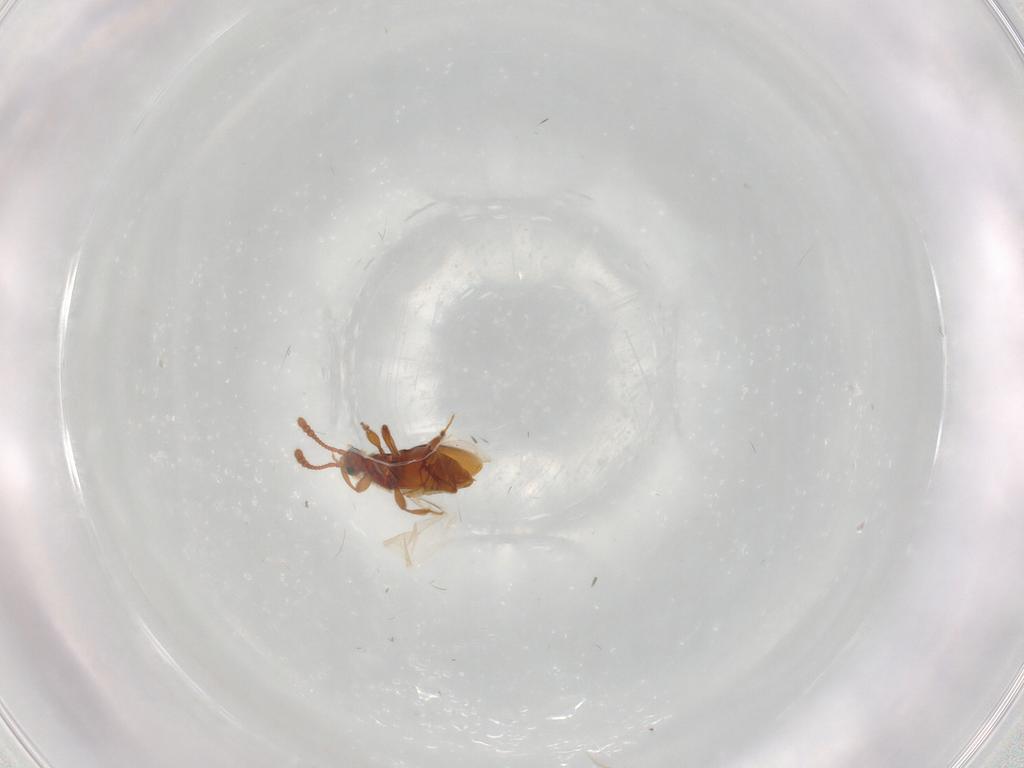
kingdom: Animalia
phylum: Arthropoda
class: Insecta
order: Coleoptera
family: Staphylinidae
